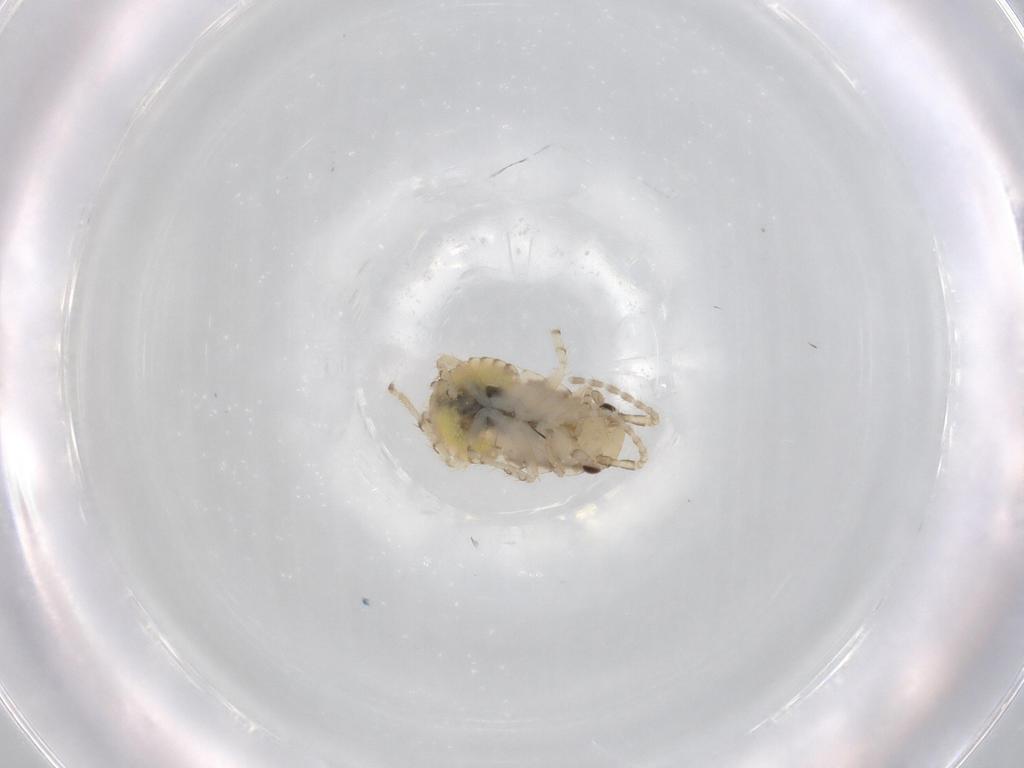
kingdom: Animalia
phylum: Arthropoda
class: Insecta
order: Blattodea
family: Ectobiidae
